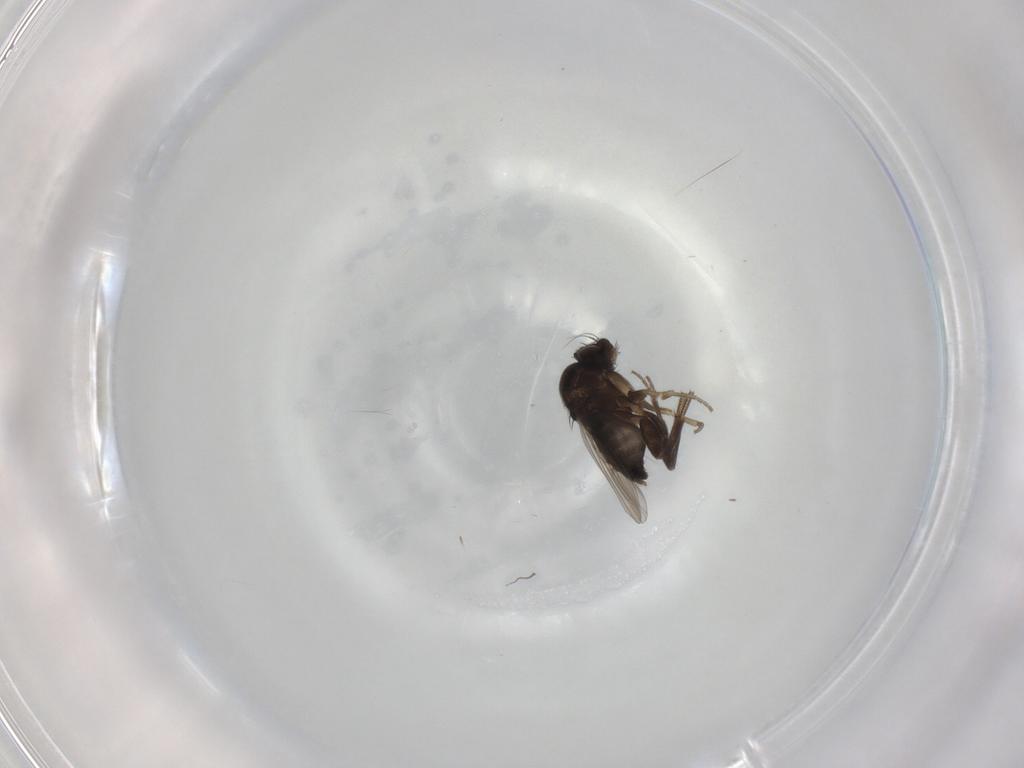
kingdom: Animalia
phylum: Arthropoda
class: Insecta
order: Diptera
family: Phoridae
